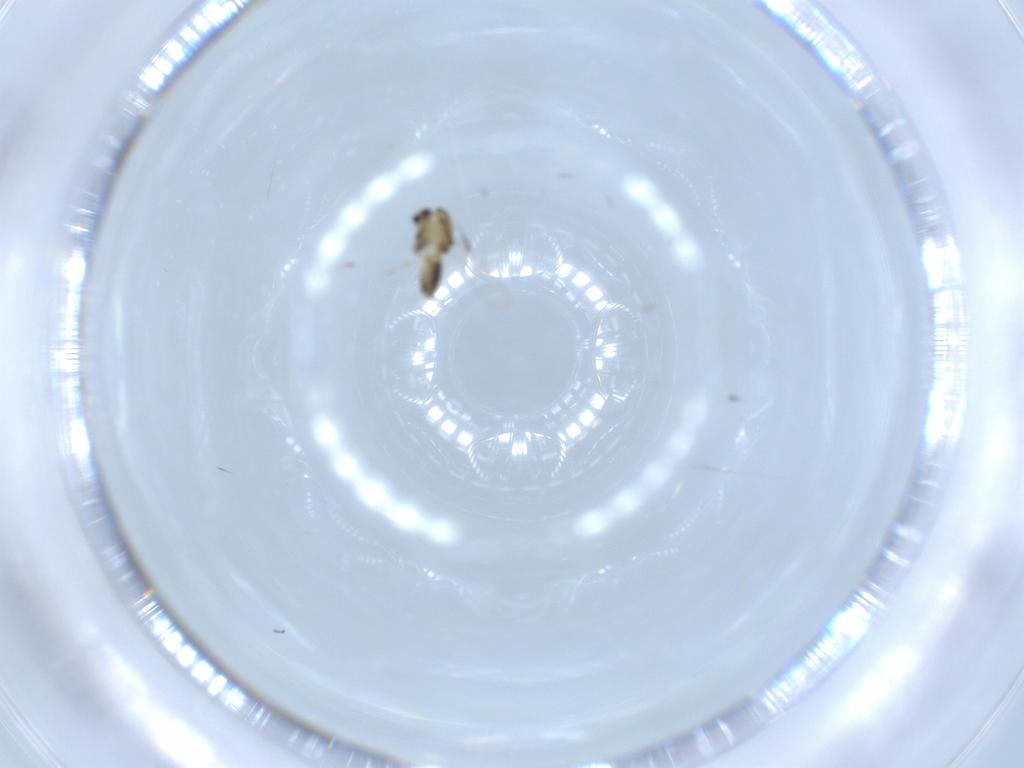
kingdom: Animalia
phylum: Arthropoda
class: Insecta
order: Diptera
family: Chironomidae
